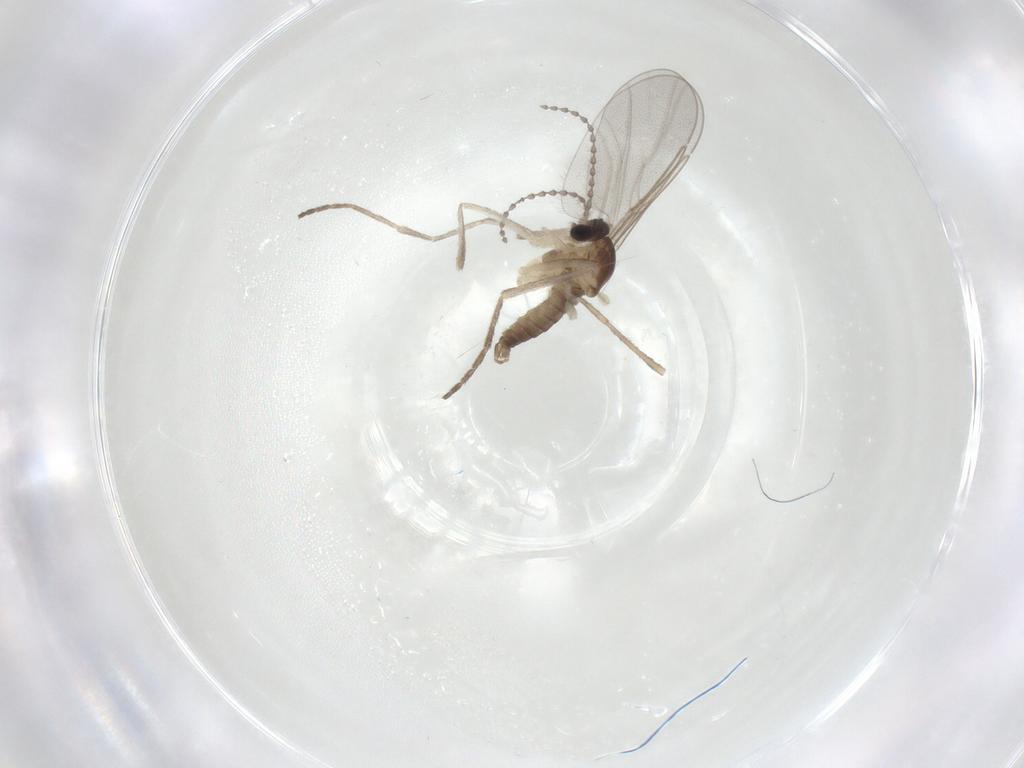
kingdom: Animalia
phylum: Arthropoda
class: Insecta
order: Diptera
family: Cecidomyiidae
